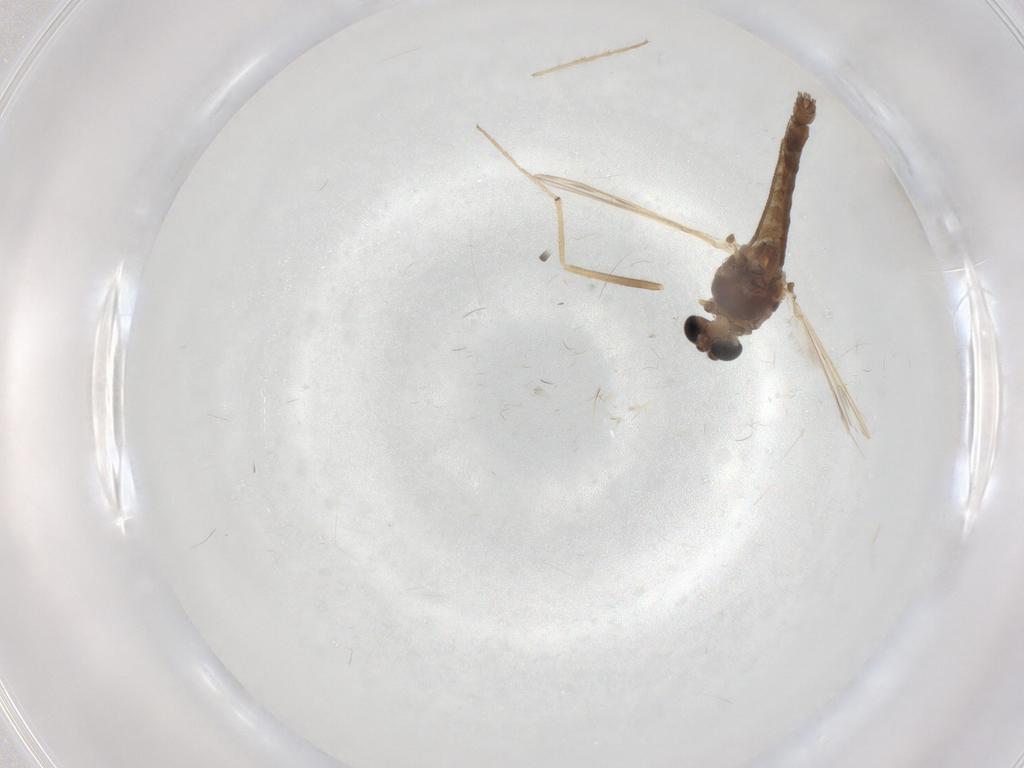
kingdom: Animalia
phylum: Arthropoda
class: Insecta
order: Diptera
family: Chironomidae
